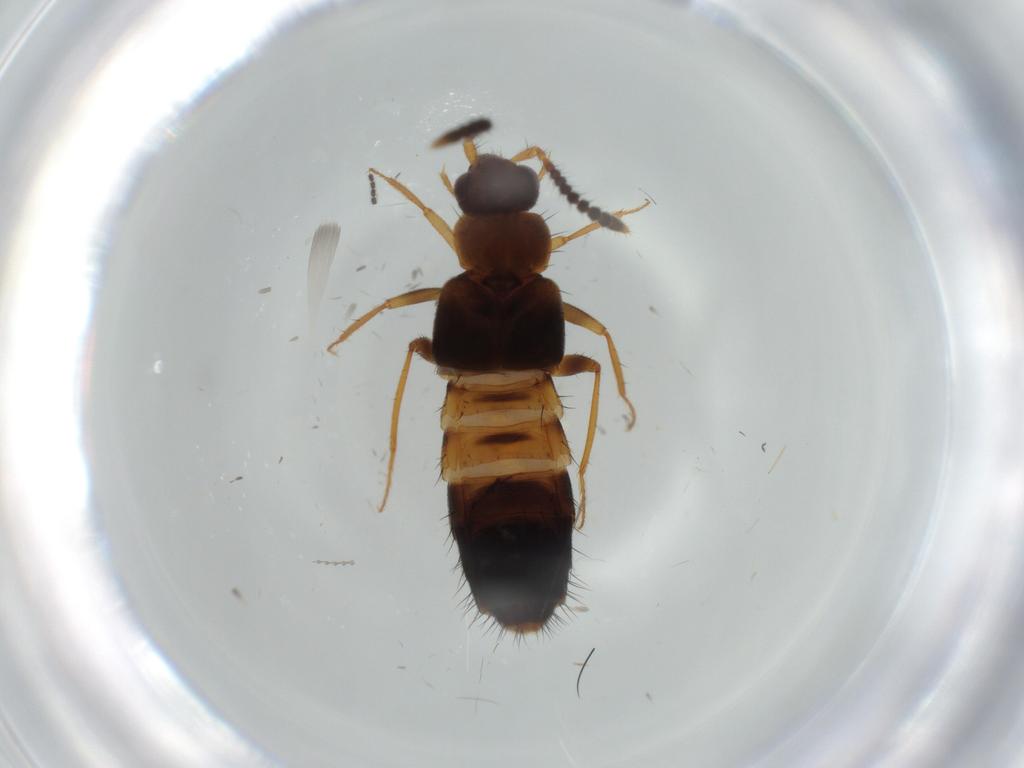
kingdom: Animalia
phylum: Arthropoda
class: Insecta
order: Coleoptera
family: Staphylinidae
